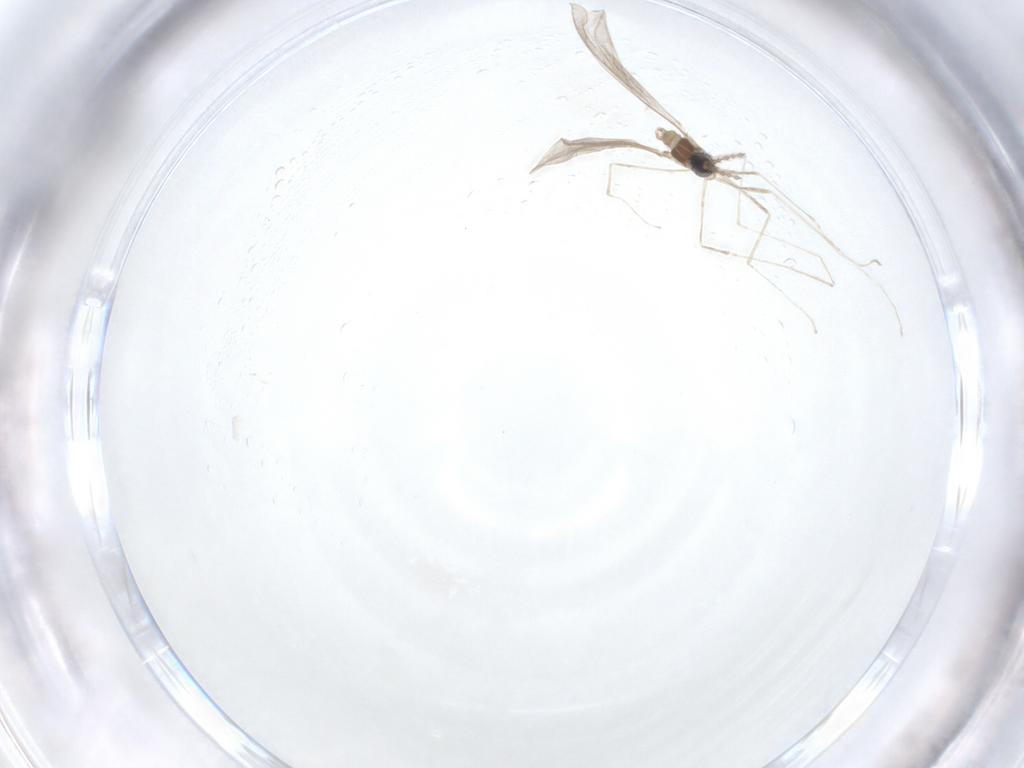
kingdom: Animalia
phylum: Arthropoda
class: Insecta
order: Diptera
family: Cecidomyiidae
